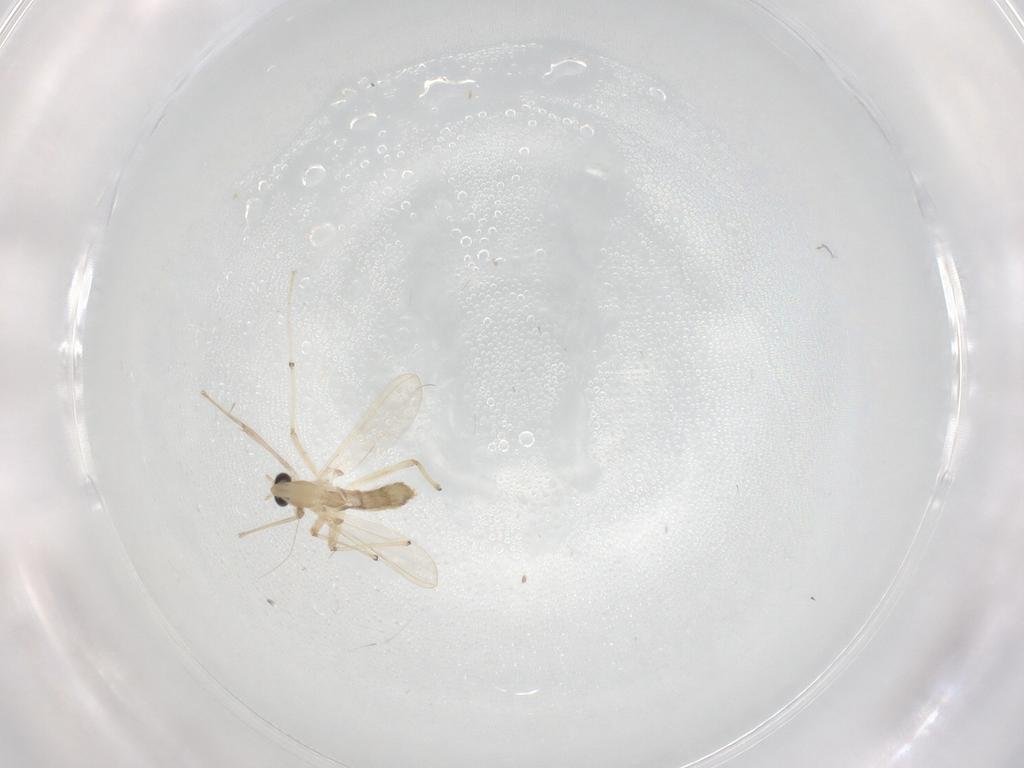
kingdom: Animalia
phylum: Arthropoda
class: Insecta
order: Diptera
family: Chironomidae
